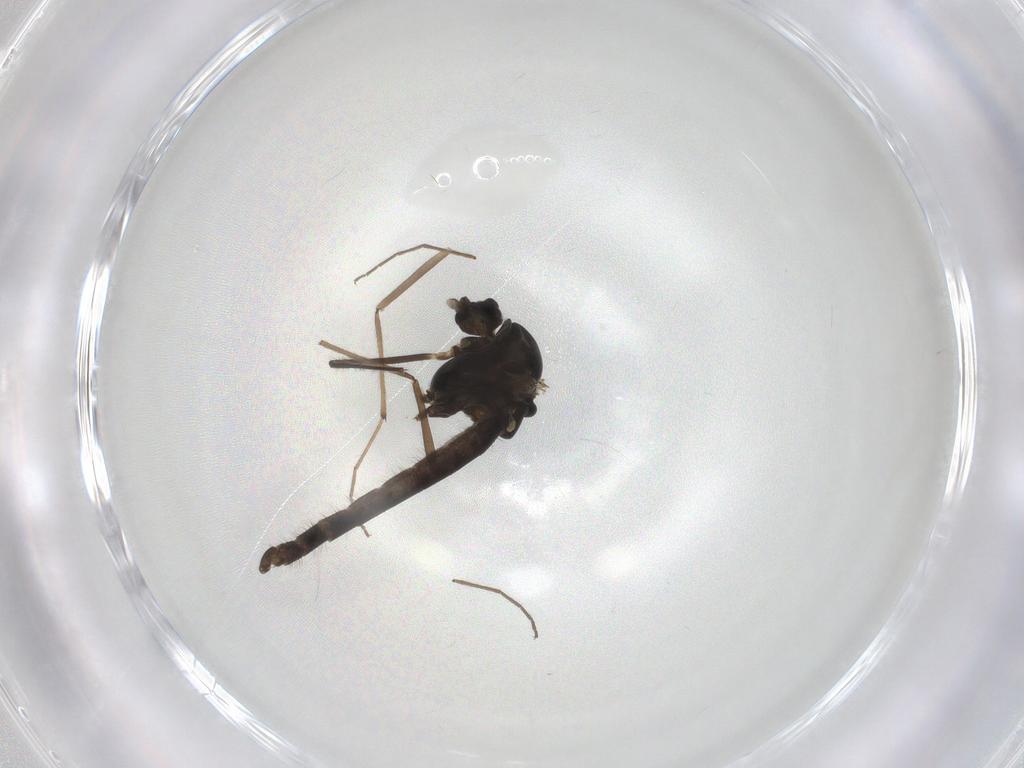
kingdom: Animalia
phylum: Arthropoda
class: Insecta
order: Diptera
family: Chironomidae
